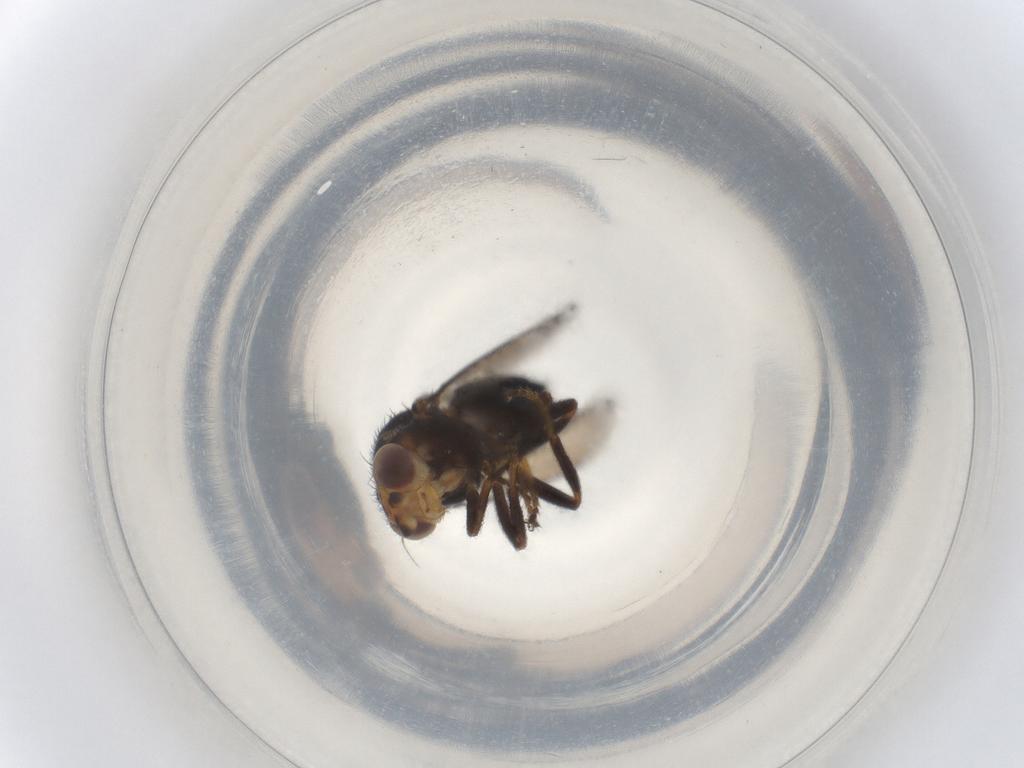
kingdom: Animalia
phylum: Arthropoda
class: Insecta
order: Diptera
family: Chloropidae
